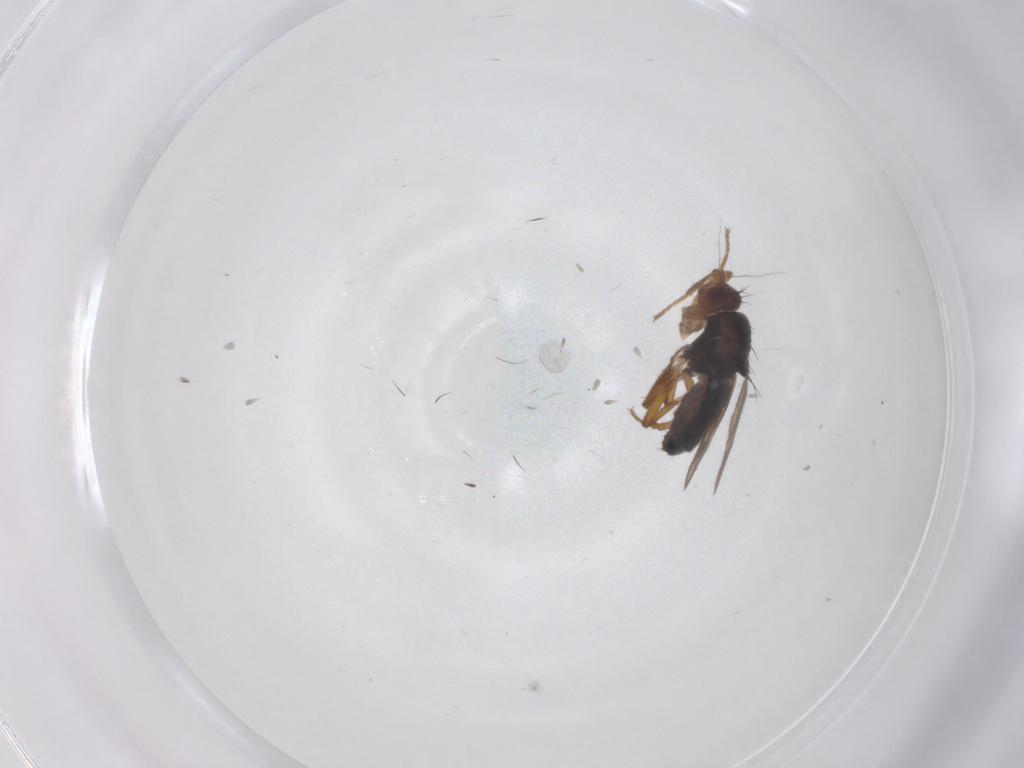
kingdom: Animalia
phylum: Arthropoda
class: Insecta
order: Diptera
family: Sphaeroceridae
